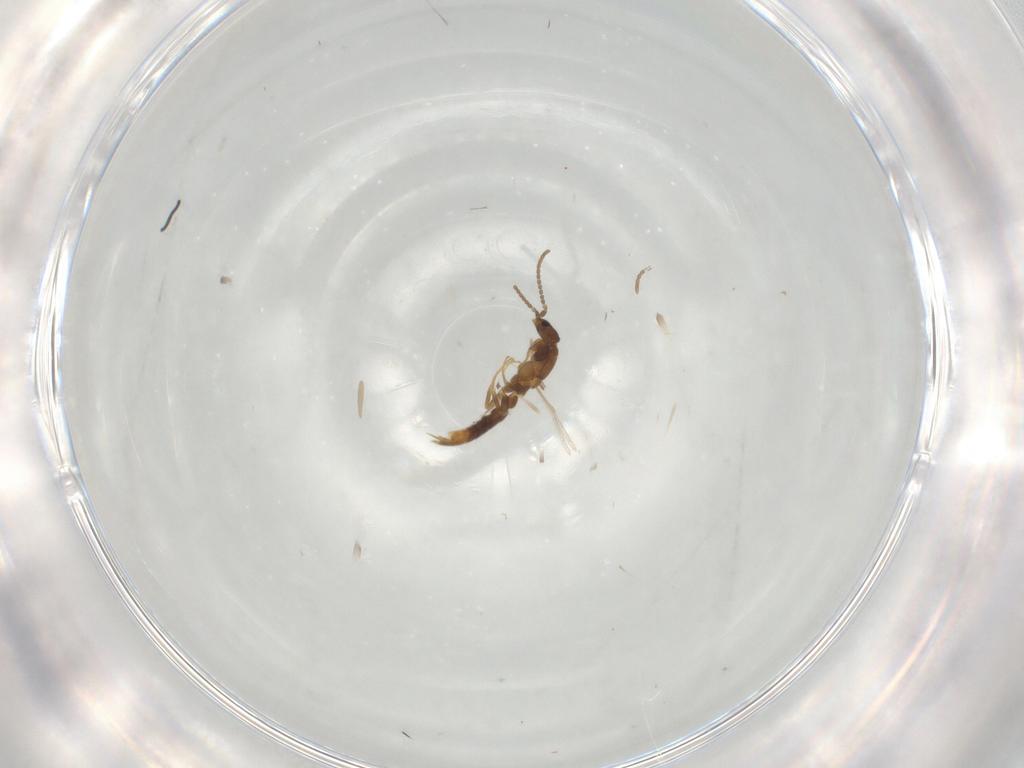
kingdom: Animalia
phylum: Arthropoda
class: Insecta
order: Hymenoptera
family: Formicidae
